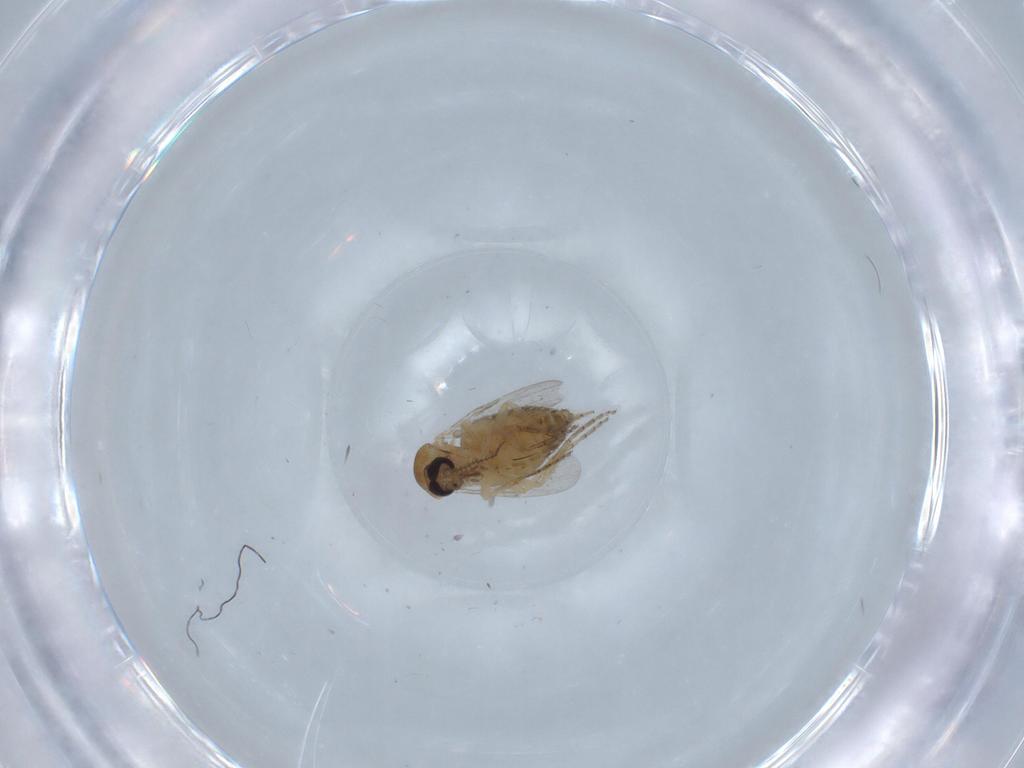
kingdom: Animalia
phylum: Arthropoda
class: Insecta
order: Diptera
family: Ceratopogonidae
